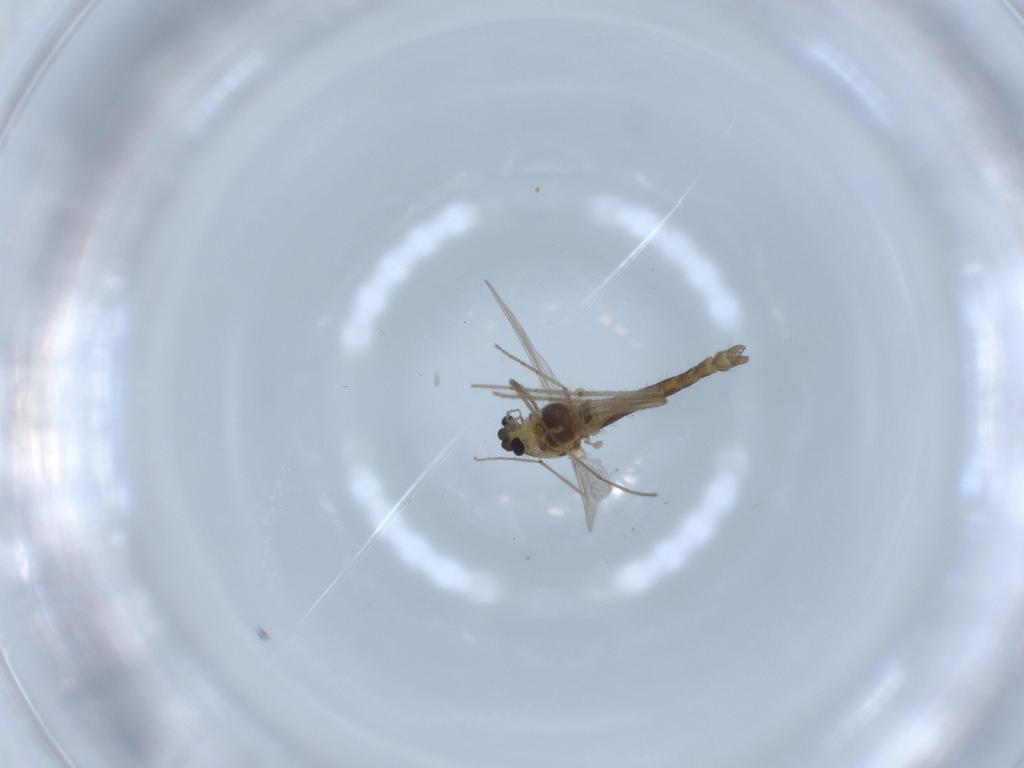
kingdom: Animalia
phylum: Arthropoda
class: Insecta
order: Diptera
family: Chironomidae
